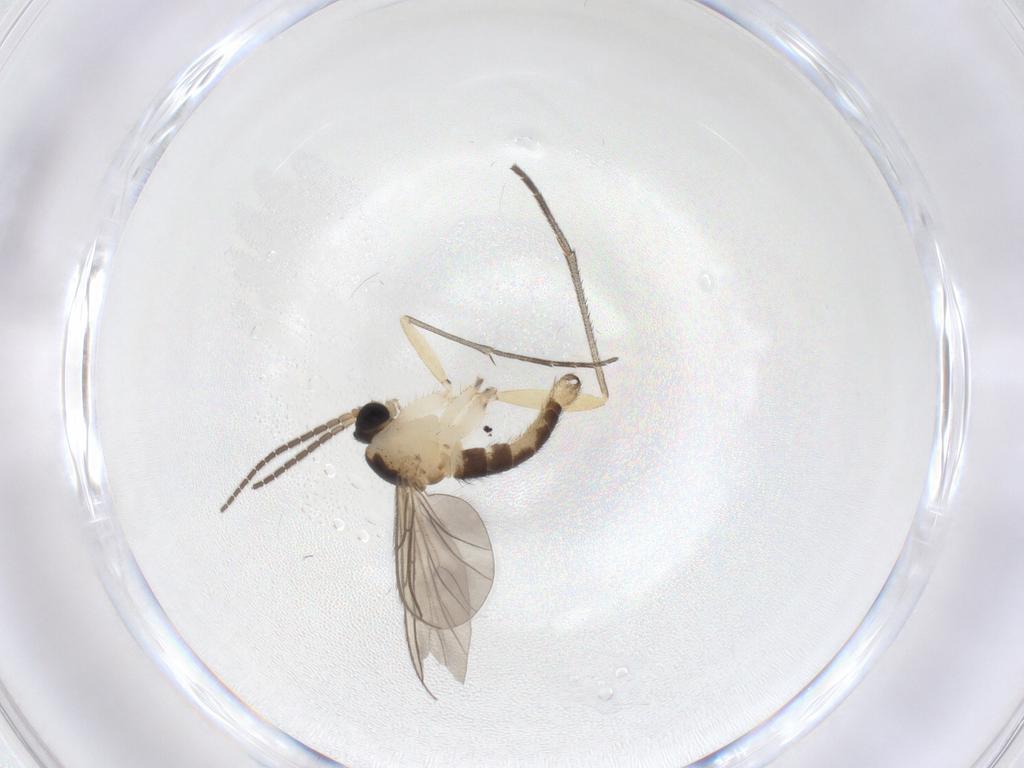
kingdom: Animalia
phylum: Arthropoda
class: Insecta
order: Diptera
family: Sciaridae
